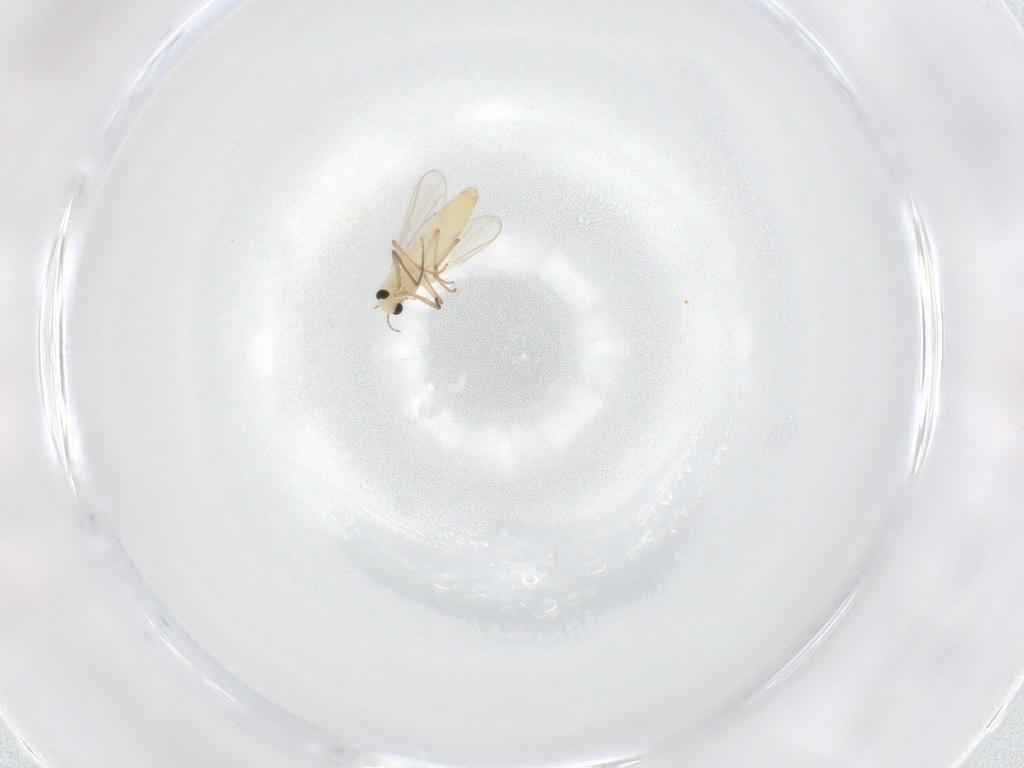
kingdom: Animalia
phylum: Arthropoda
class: Insecta
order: Diptera
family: Chironomidae
